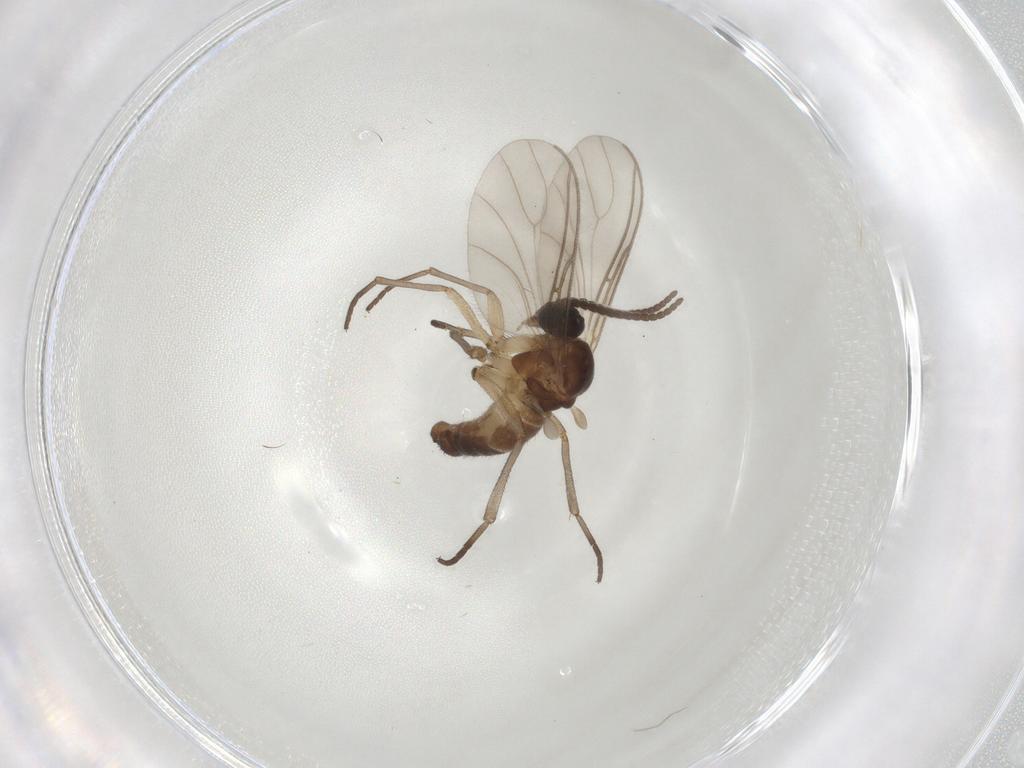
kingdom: Animalia
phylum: Arthropoda
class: Insecta
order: Diptera
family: Sciaridae
